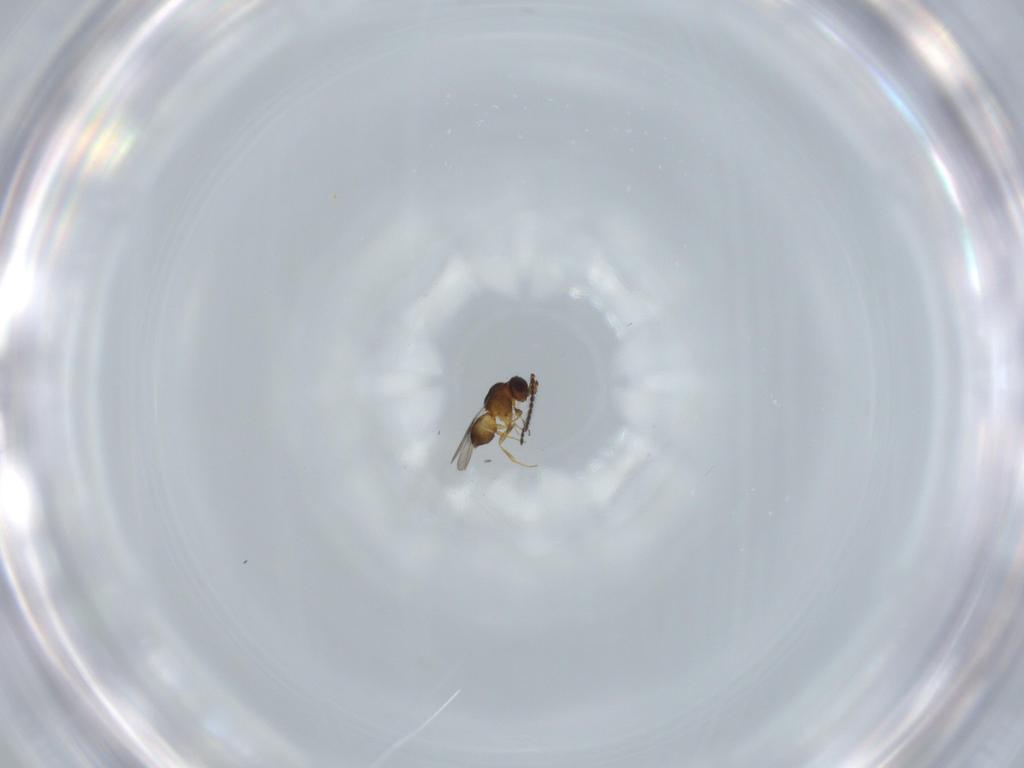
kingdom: Animalia
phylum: Arthropoda
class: Insecta
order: Hymenoptera
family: Ceraphronidae
